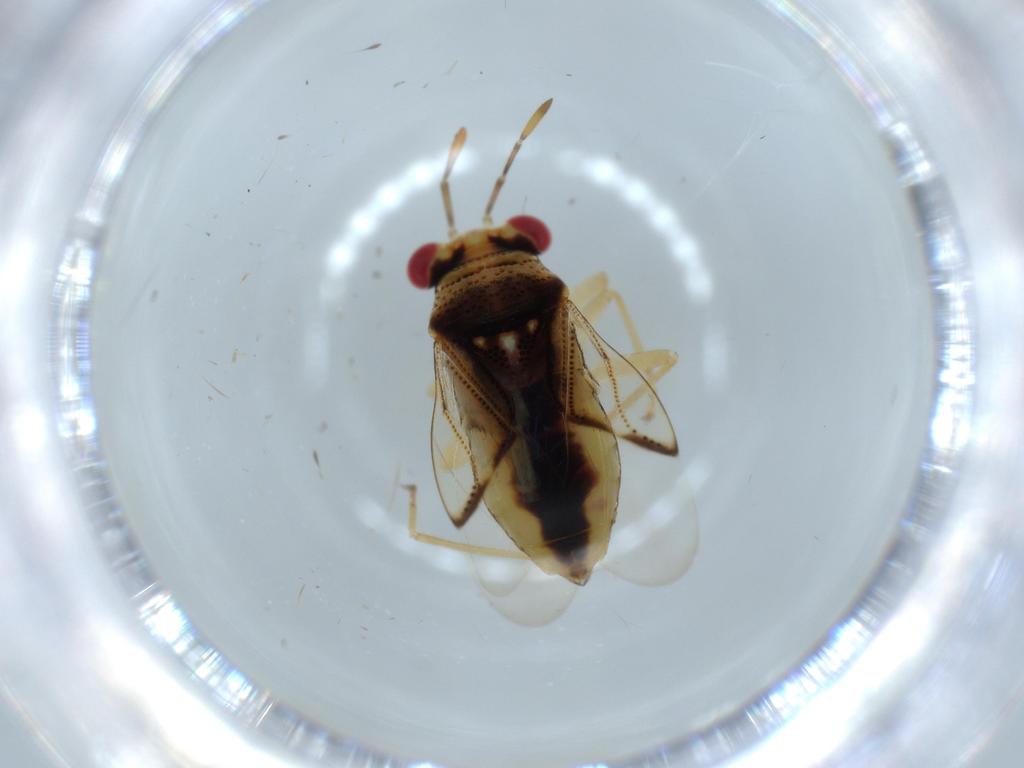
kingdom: Animalia
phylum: Arthropoda
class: Insecta
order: Hemiptera
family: Geocoridae
